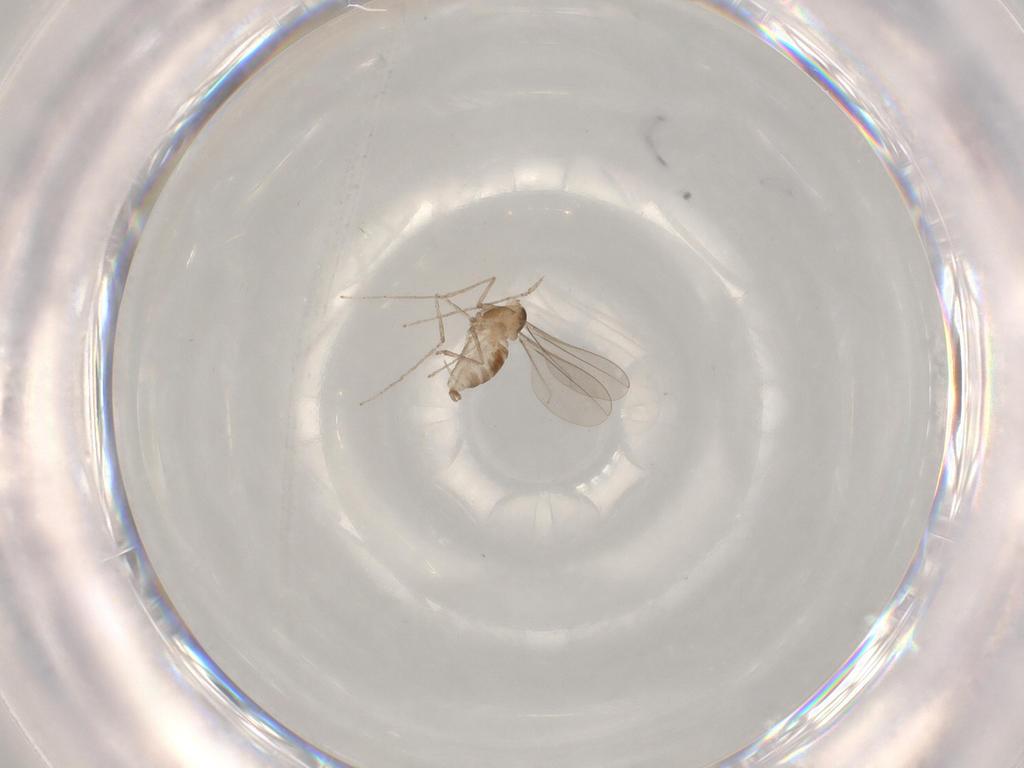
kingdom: Animalia
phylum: Arthropoda
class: Insecta
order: Diptera
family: Cecidomyiidae
